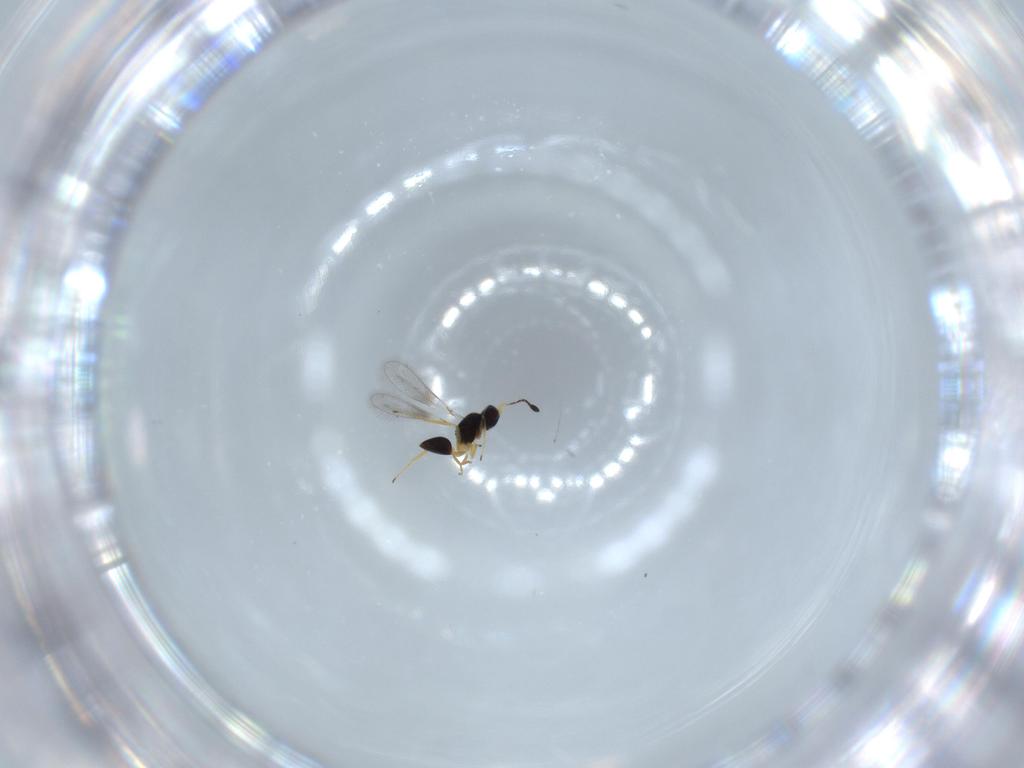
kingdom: Animalia
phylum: Arthropoda
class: Insecta
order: Hymenoptera
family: Mymaridae
